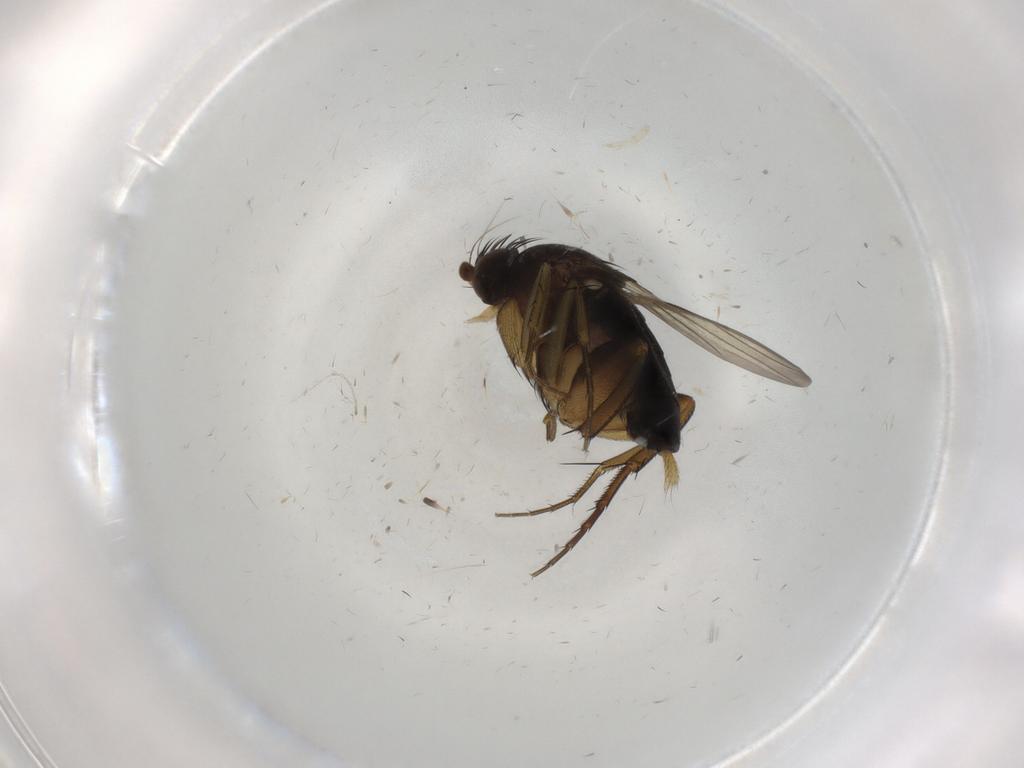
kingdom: Animalia
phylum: Arthropoda
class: Insecta
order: Diptera
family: Phoridae
